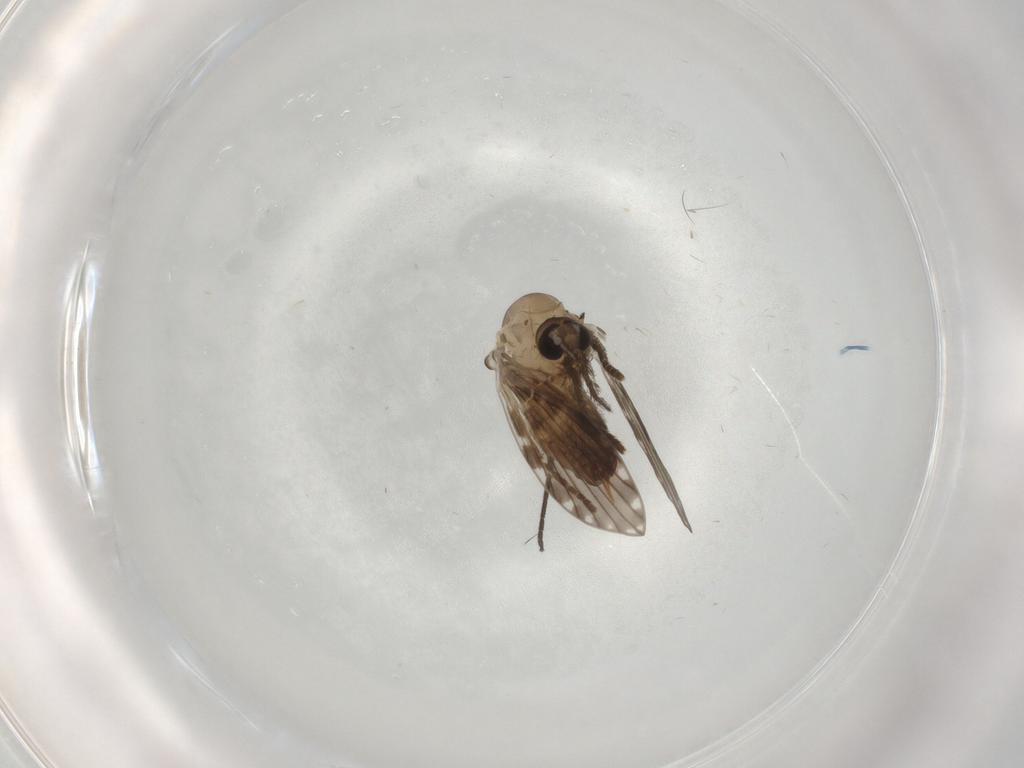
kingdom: Animalia
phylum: Arthropoda
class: Insecta
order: Diptera
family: Psychodidae
